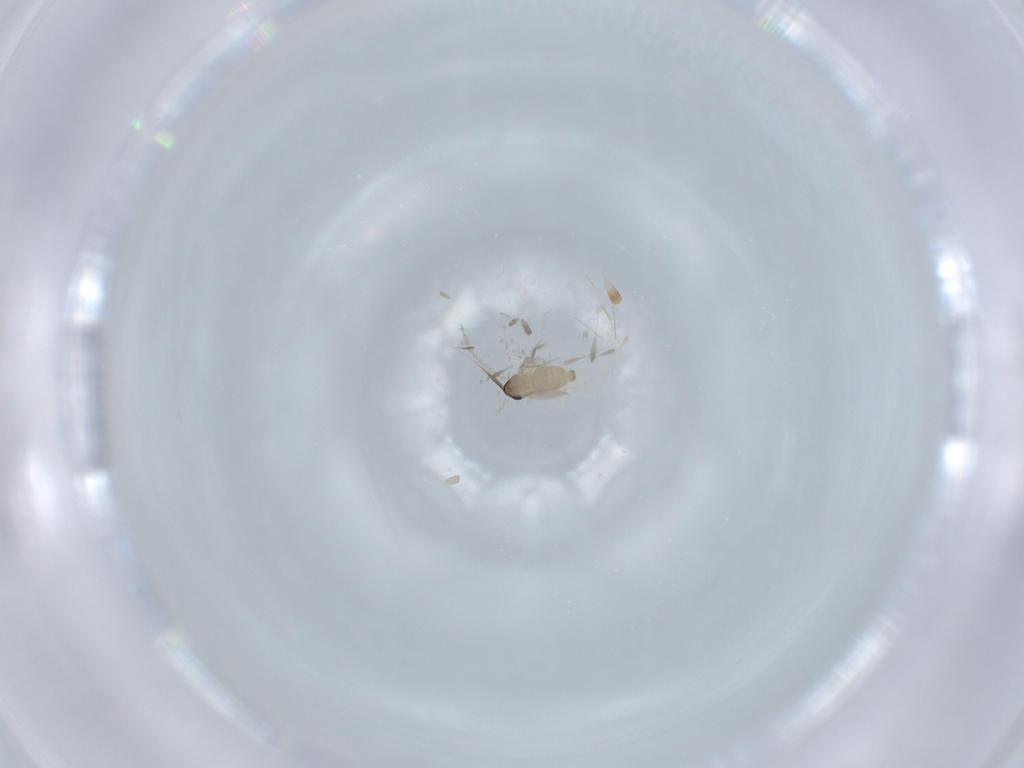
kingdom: Animalia
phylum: Arthropoda
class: Insecta
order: Diptera
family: Cecidomyiidae
